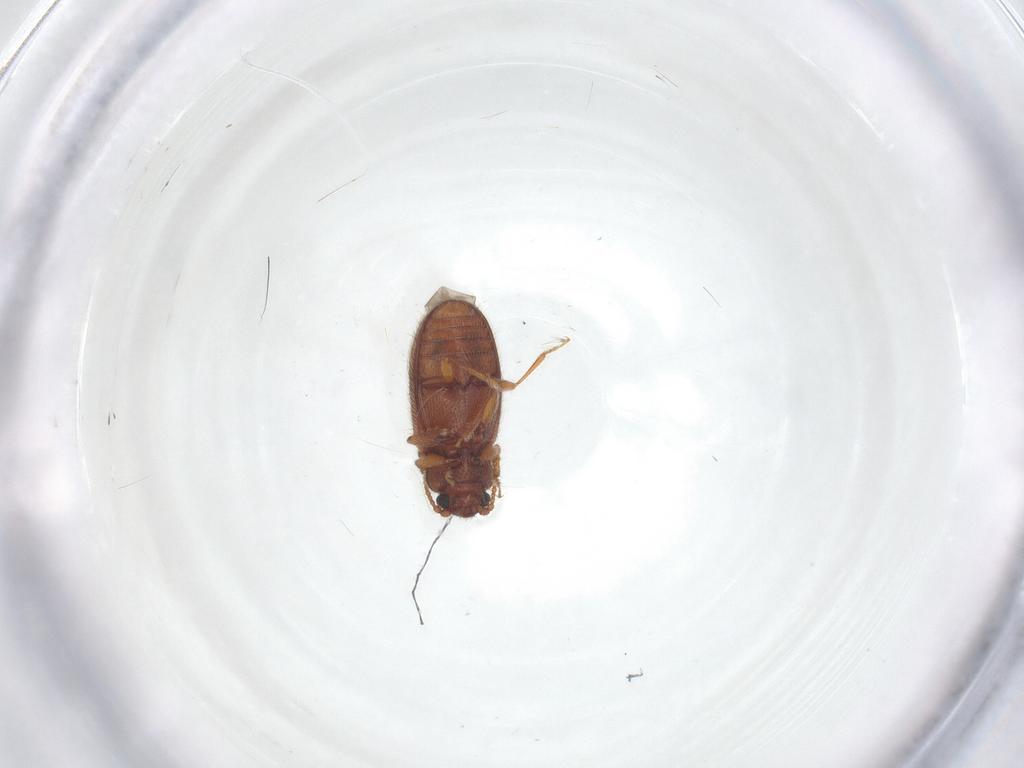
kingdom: Animalia
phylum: Arthropoda
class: Insecta
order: Coleoptera
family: Cryptophagidae
